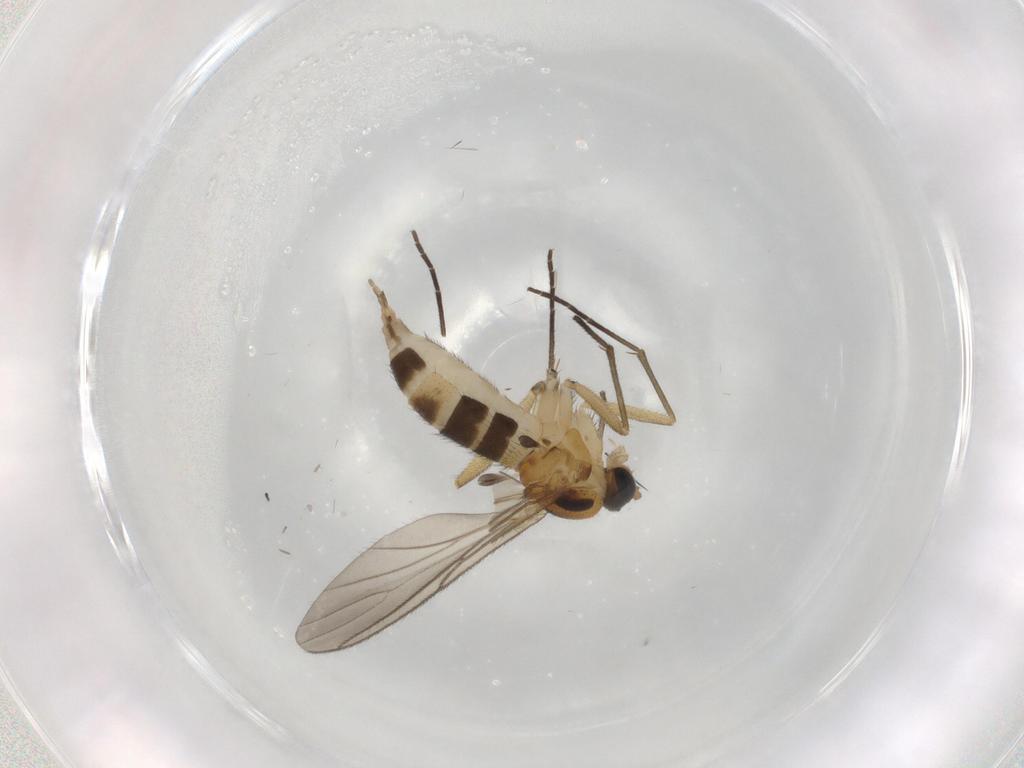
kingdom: Animalia
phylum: Arthropoda
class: Insecta
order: Diptera
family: Sciaridae
